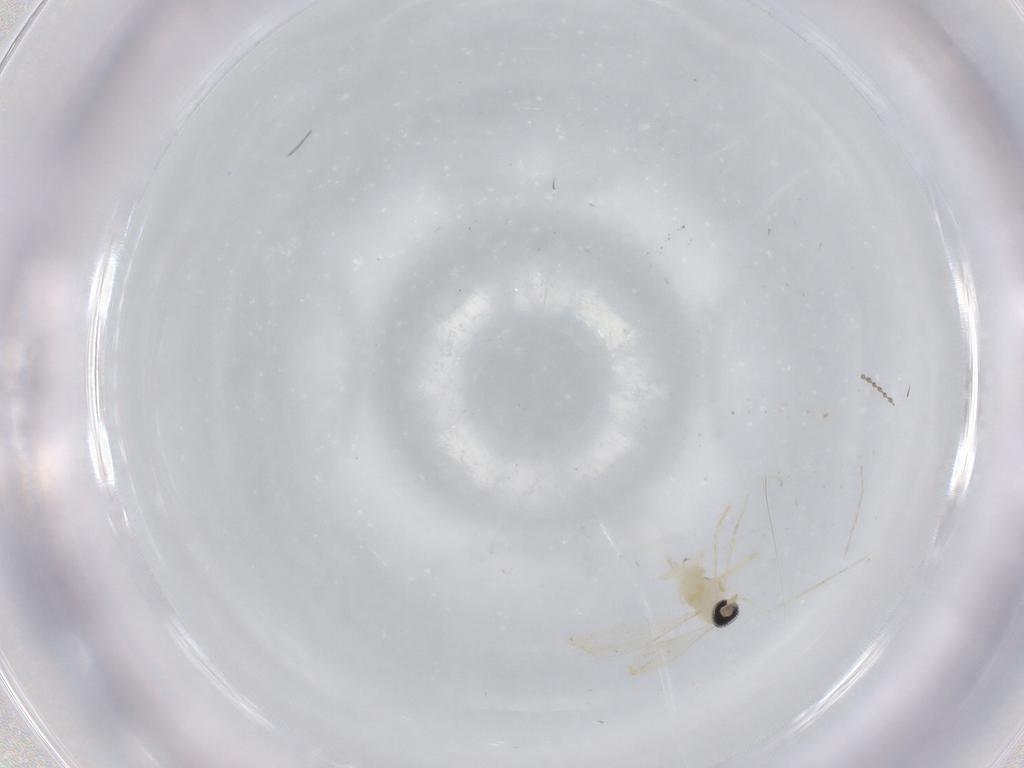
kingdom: Animalia
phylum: Arthropoda
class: Insecta
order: Diptera
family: Cecidomyiidae
